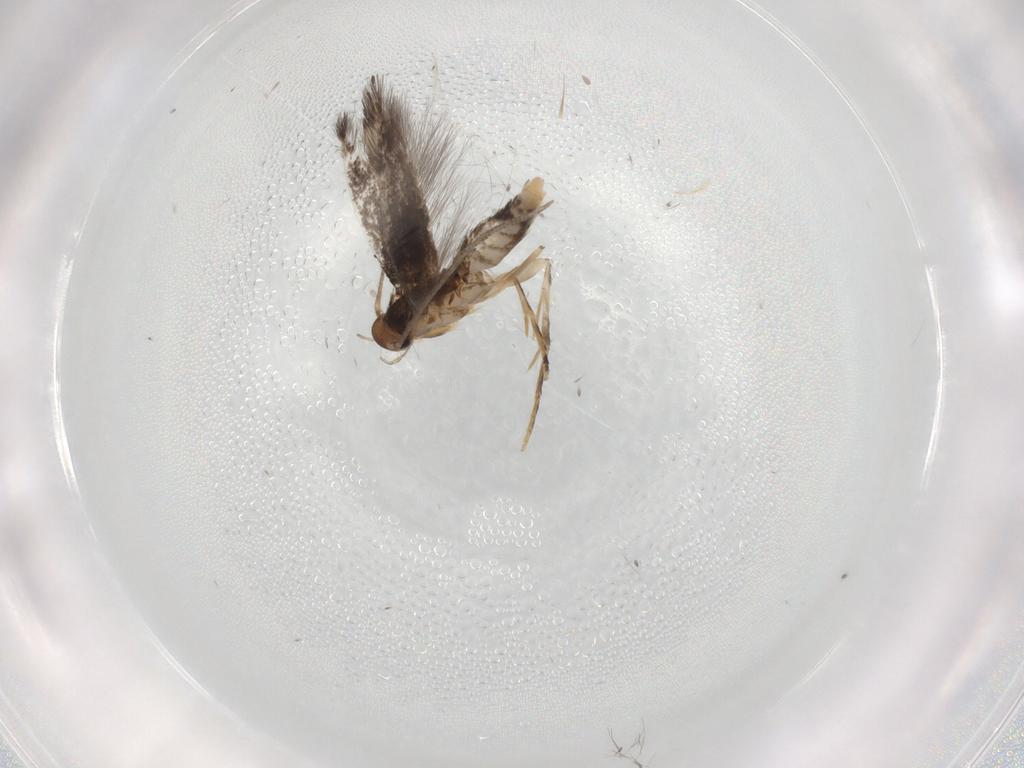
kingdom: Animalia
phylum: Arthropoda
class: Insecta
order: Lepidoptera
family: Elachistidae
